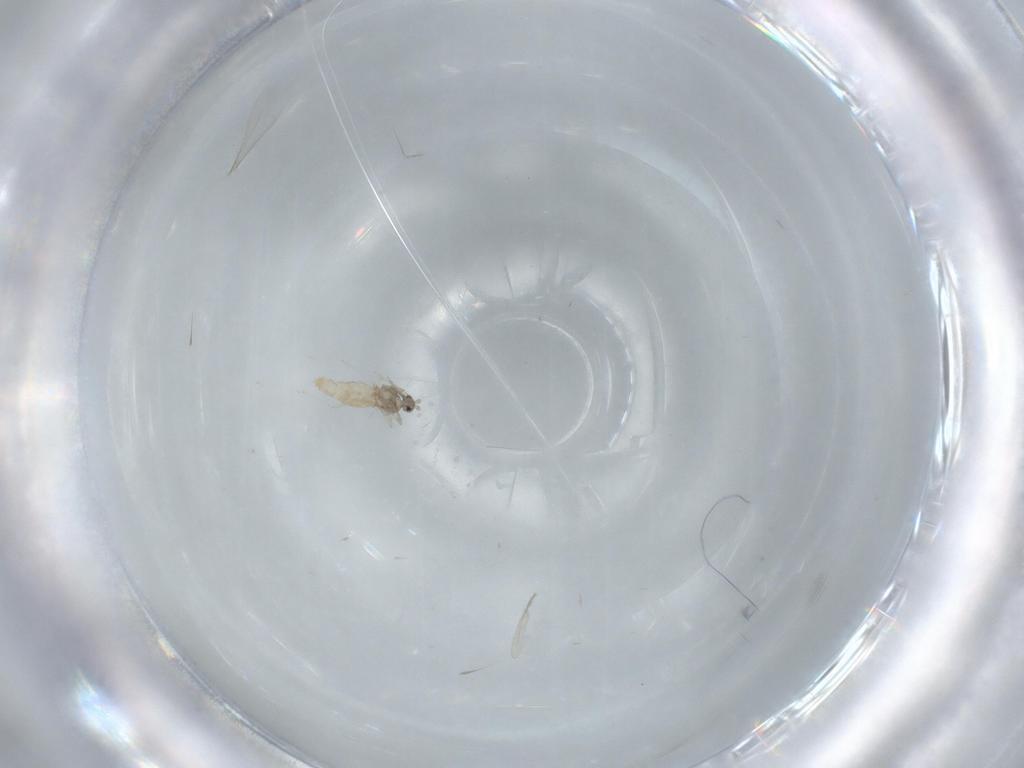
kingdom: Animalia
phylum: Arthropoda
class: Insecta
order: Diptera
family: Cecidomyiidae
